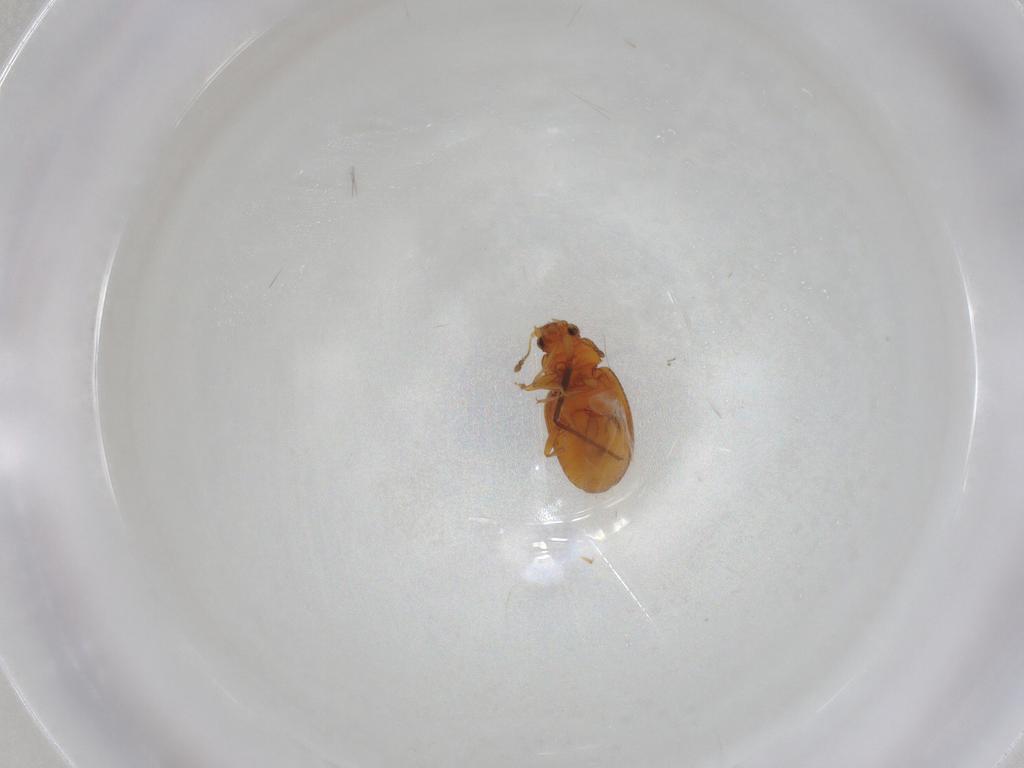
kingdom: Animalia
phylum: Arthropoda
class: Insecta
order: Coleoptera
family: Latridiidae
